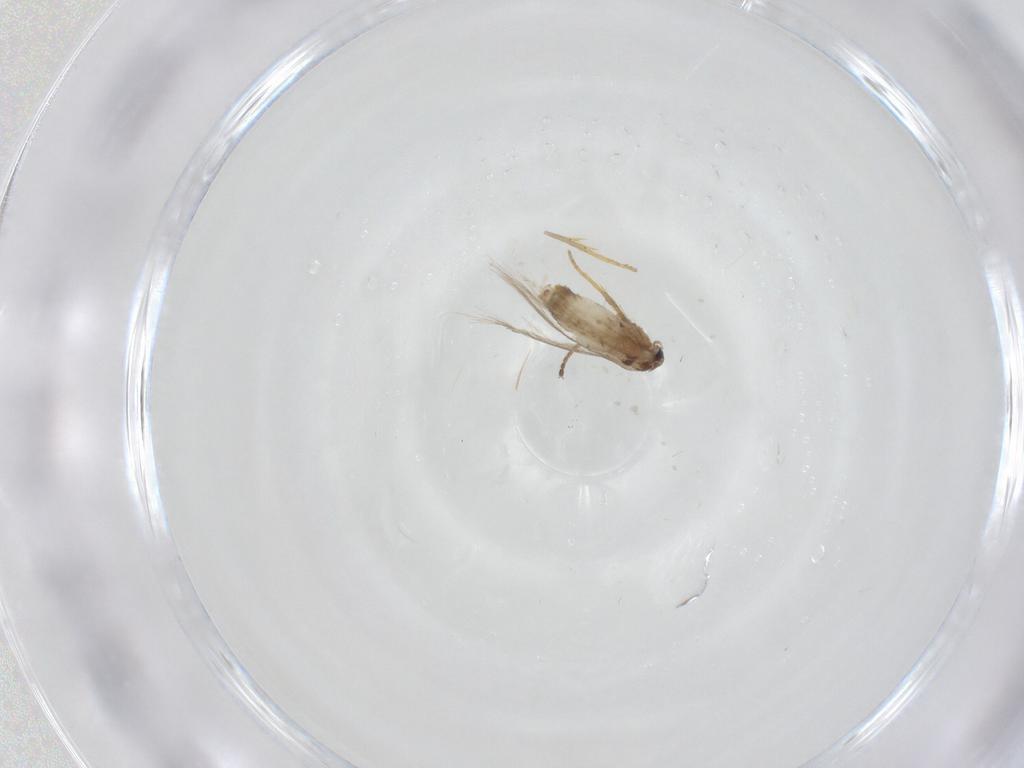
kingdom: Animalia
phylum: Arthropoda
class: Insecta
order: Lepidoptera
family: Nepticulidae
